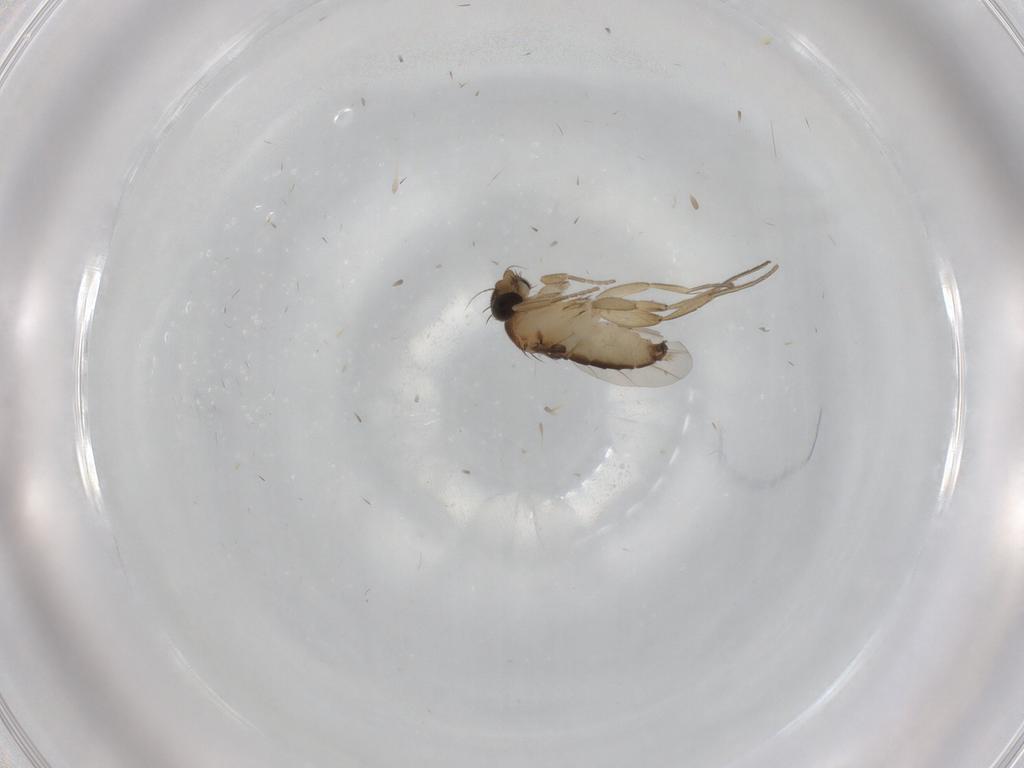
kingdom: Animalia
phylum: Arthropoda
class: Insecta
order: Diptera
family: Phoridae
